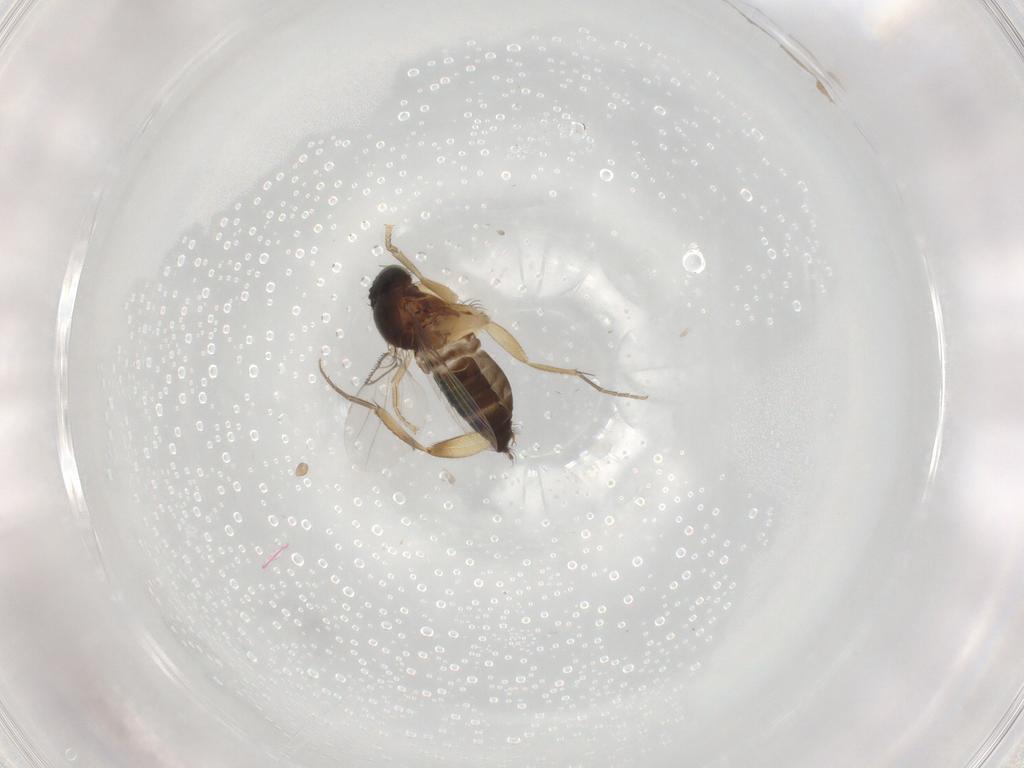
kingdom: Animalia
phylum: Arthropoda
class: Insecta
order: Diptera
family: Phoridae
